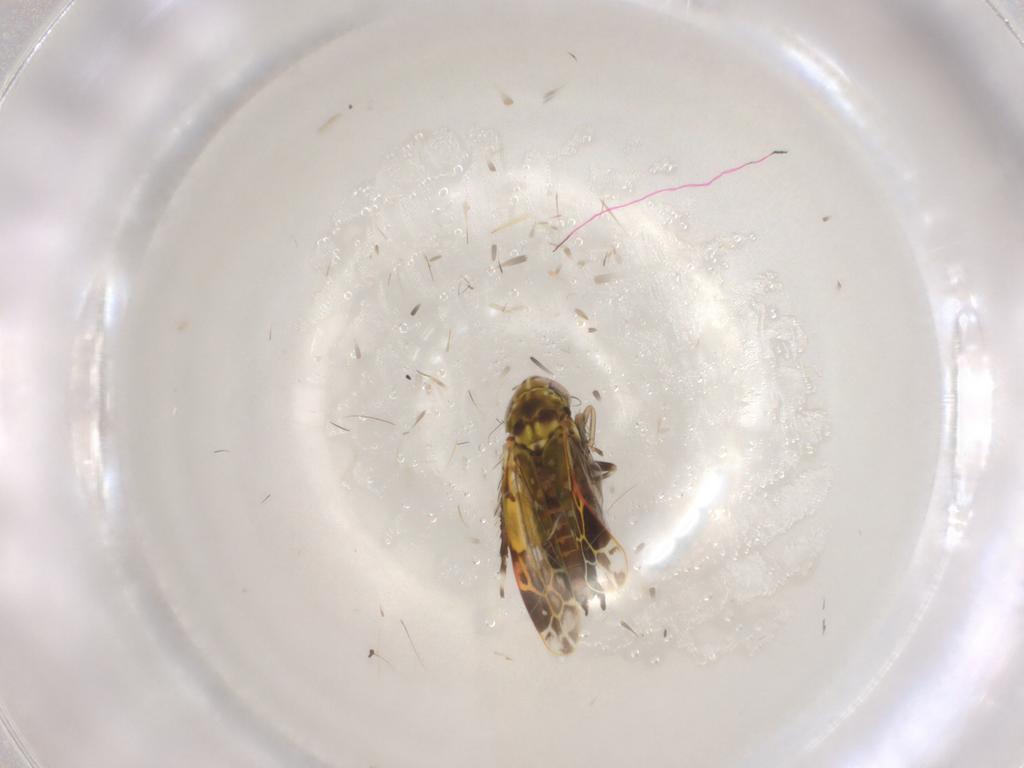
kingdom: Animalia
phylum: Arthropoda
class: Insecta
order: Hemiptera
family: Cicadellidae
